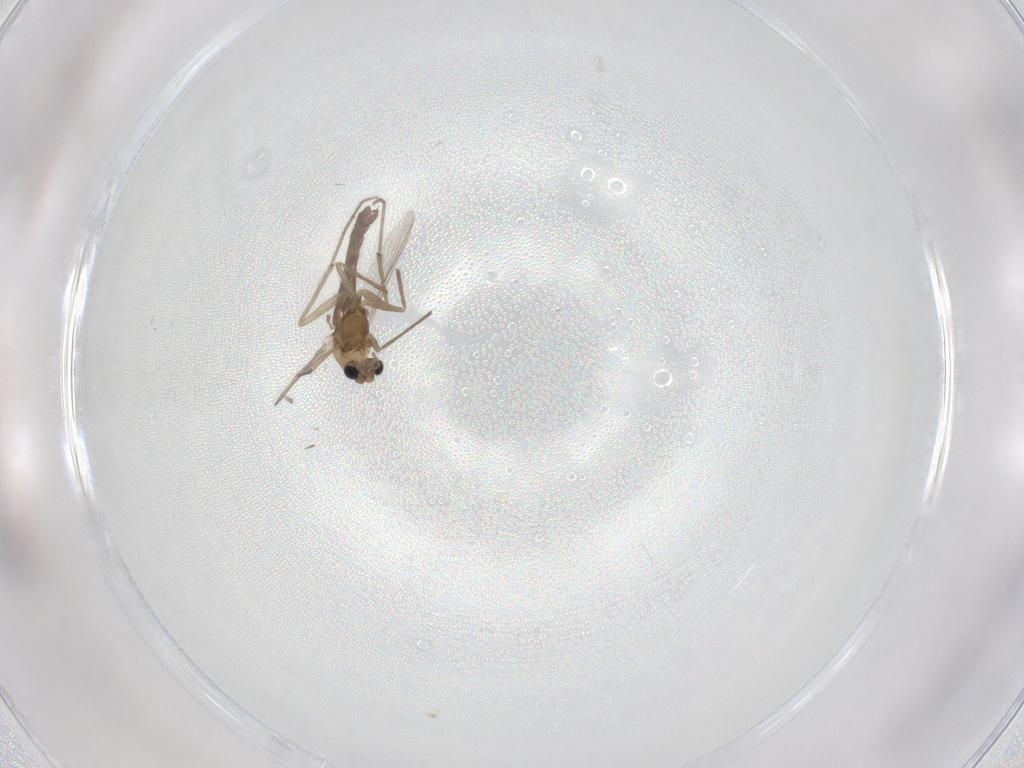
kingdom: Animalia
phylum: Arthropoda
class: Insecta
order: Diptera
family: Chironomidae
